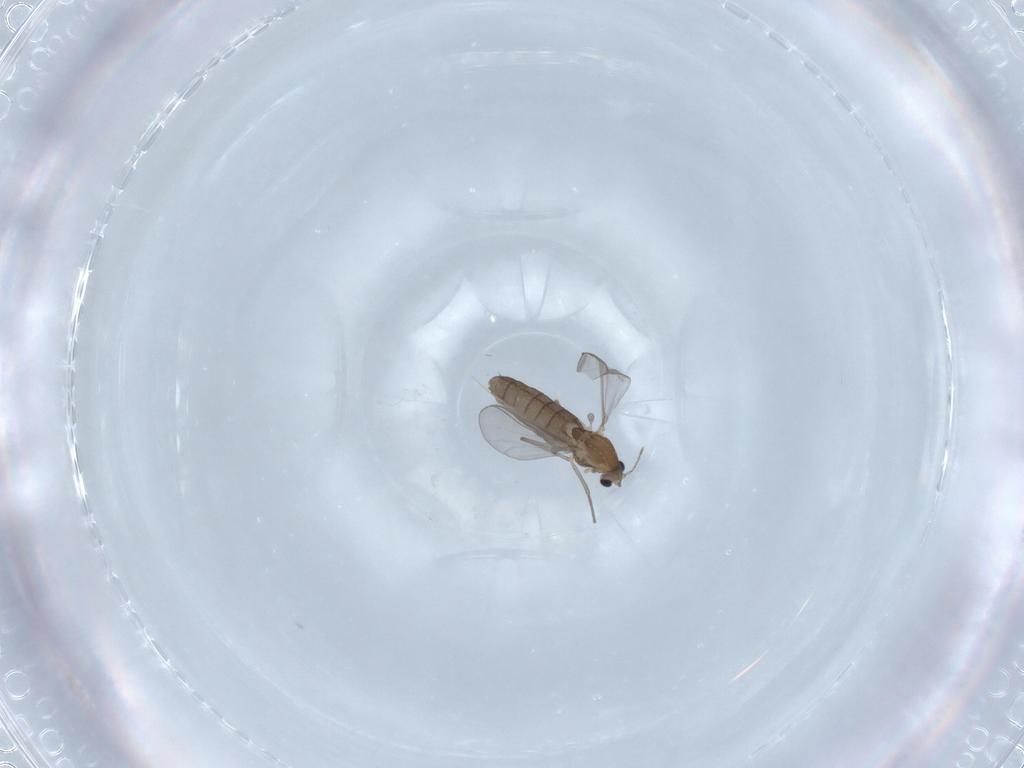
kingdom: Animalia
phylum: Arthropoda
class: Insecta
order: Diptera
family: Chironomidae
